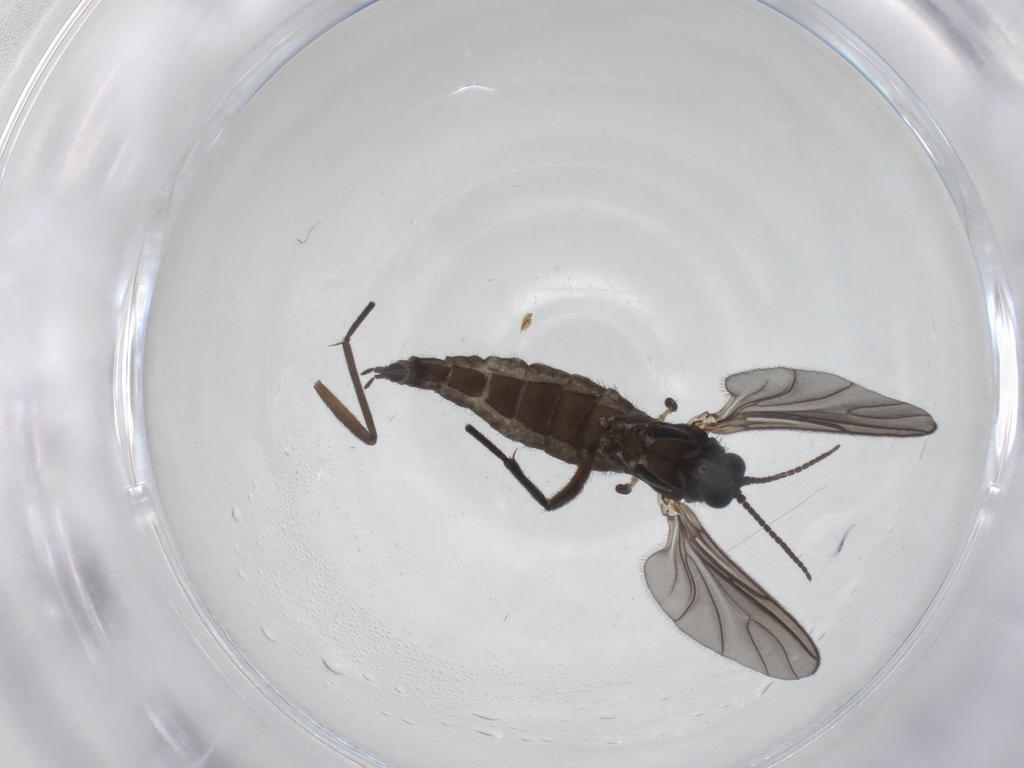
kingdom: Animalia
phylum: Arthropoda
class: Insecta
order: Diptera
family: Sciaridae
